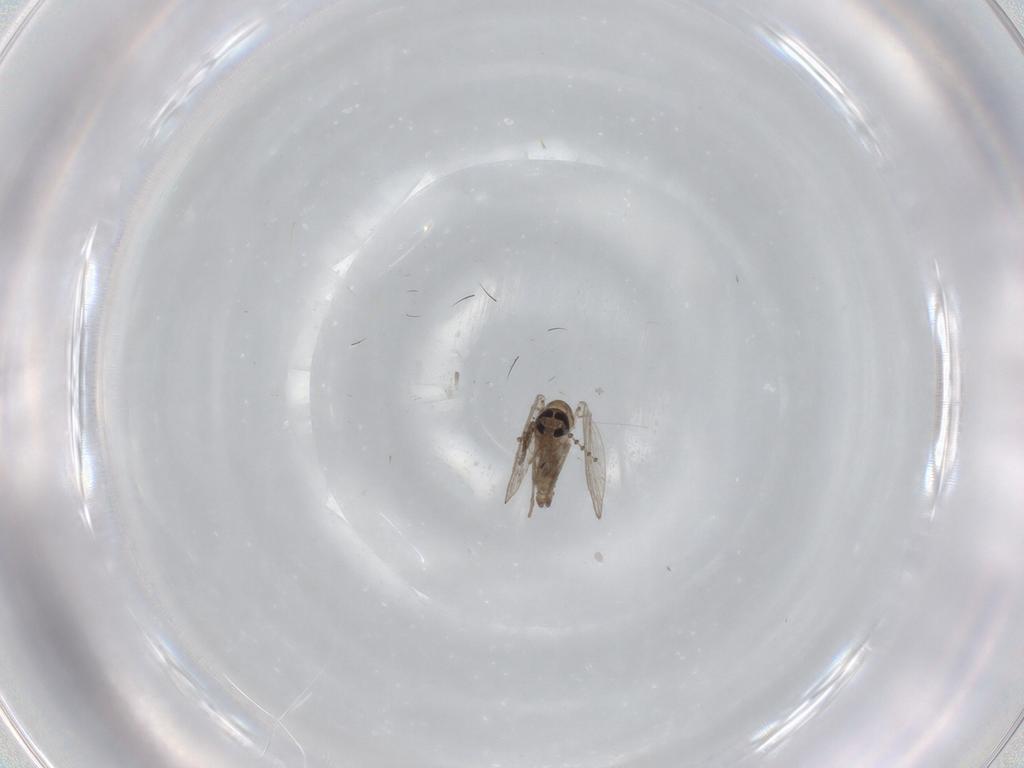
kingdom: Animalia
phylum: Arthropoda
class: Insecta
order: Diptera
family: Psychodidae
